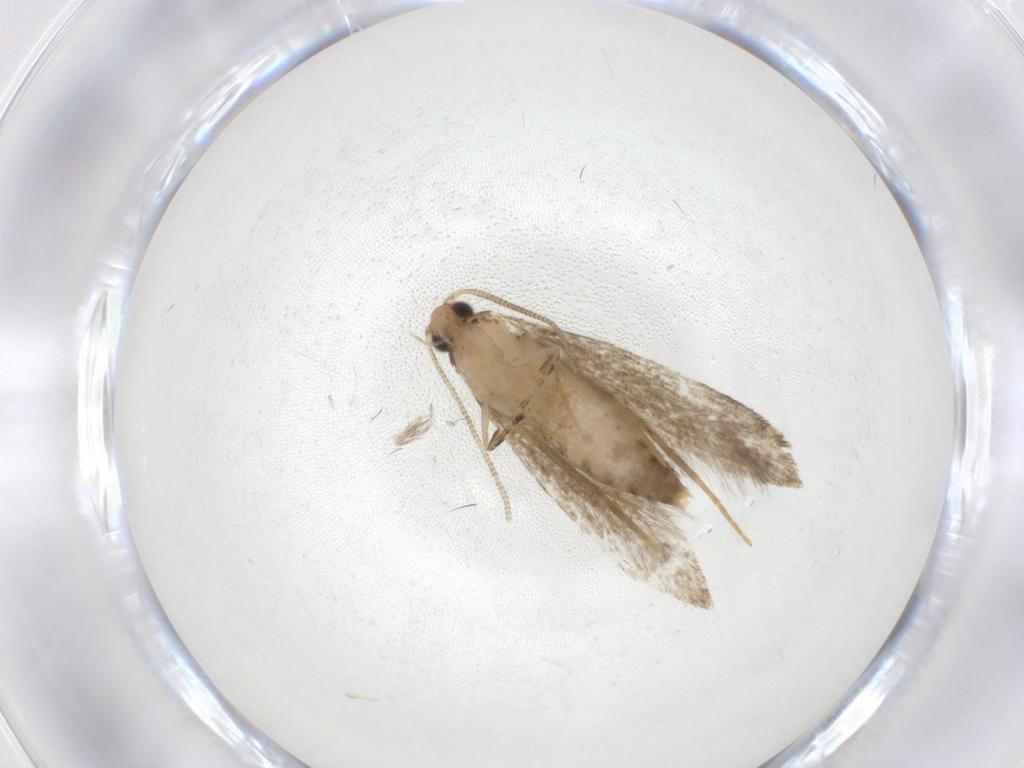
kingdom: Animalia
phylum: Arthropoda
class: Insecta
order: Lepidoptera
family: Meessiidae
